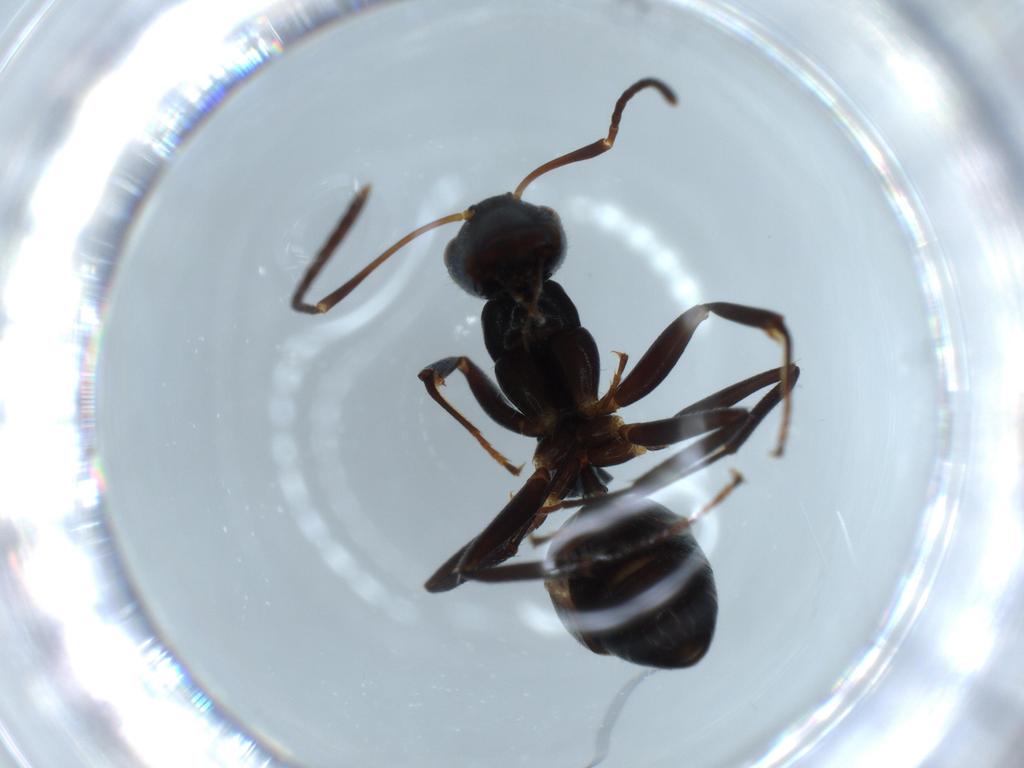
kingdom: Animalia
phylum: Arthropoda
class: Insecta
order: Hymenoptera
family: Formicidae
